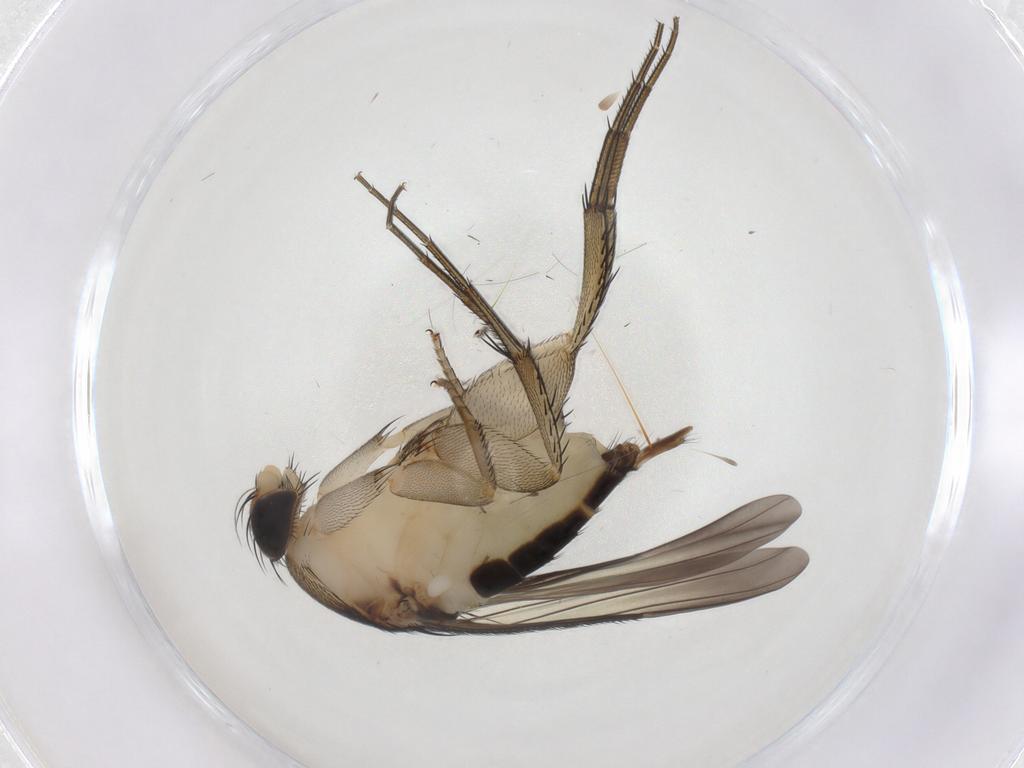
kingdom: Animalia
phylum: Arthropoda
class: Insecta
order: Diptera
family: Phoridae
